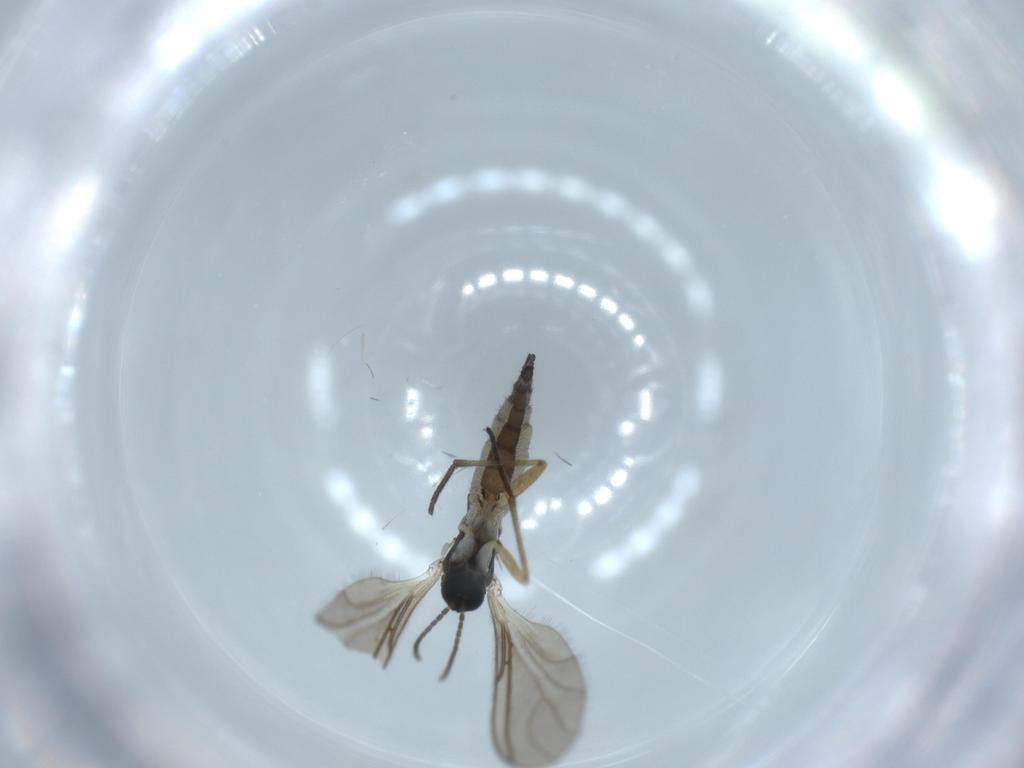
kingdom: Animalia
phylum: Arthropoda
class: Insecta
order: Diptera
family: Sciaridae
